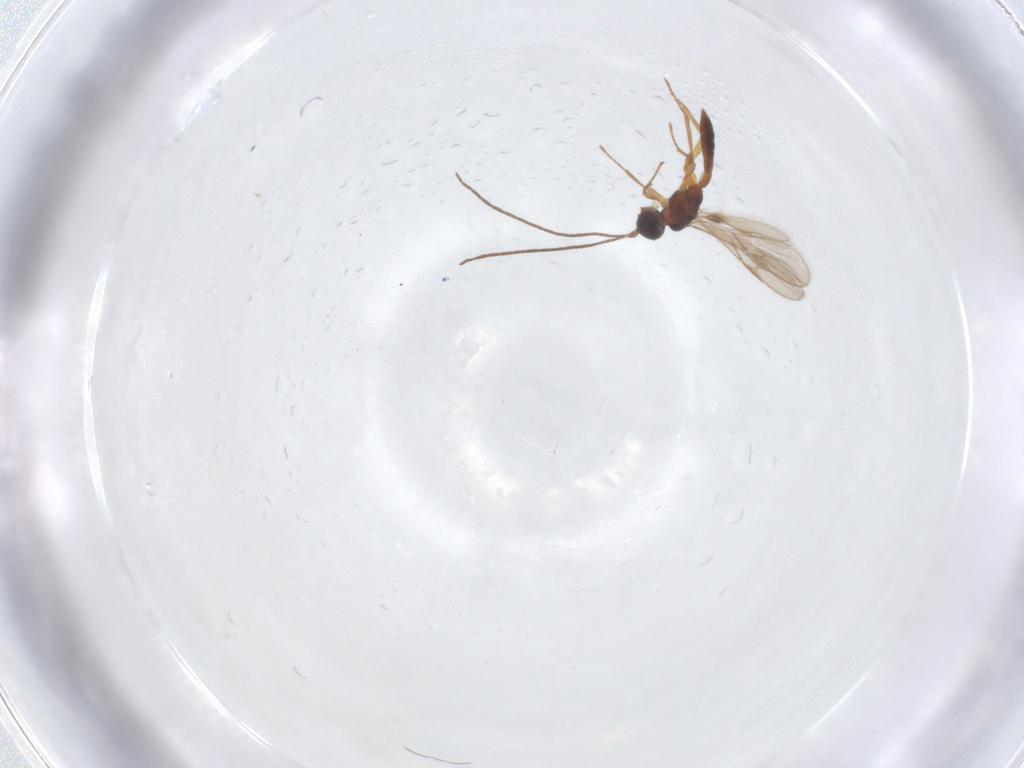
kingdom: Animalia
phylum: Arthropoda
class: Insecta
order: Hymenoptera
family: Braconidae
